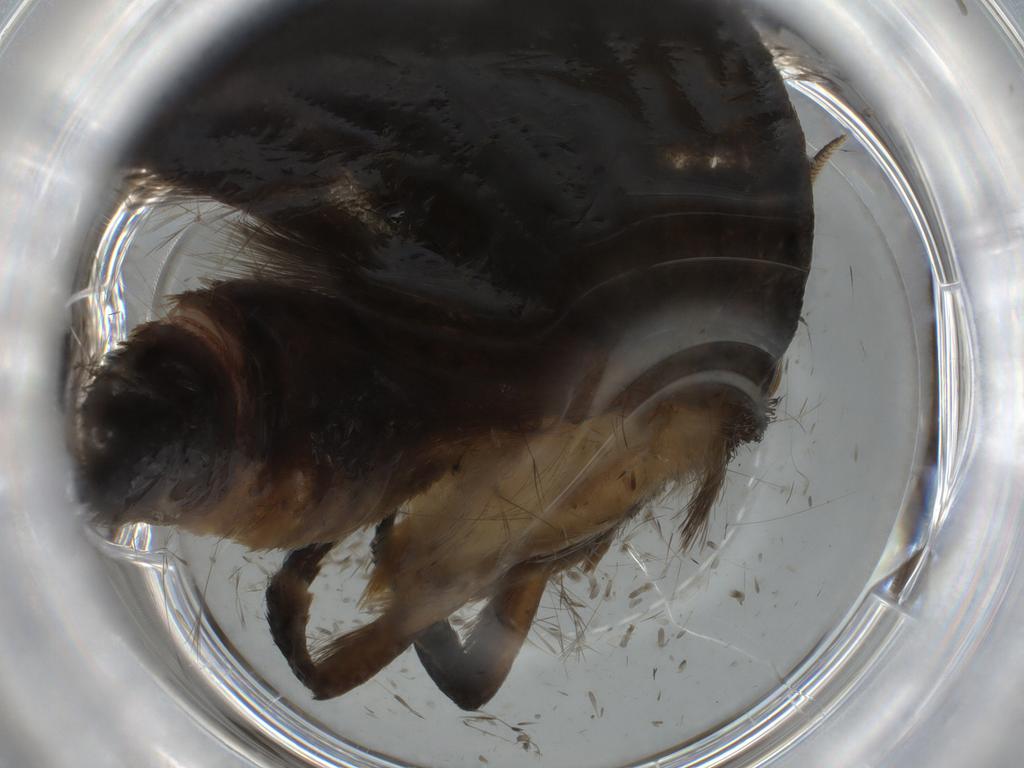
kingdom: Animalia
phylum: Arthropoda
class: Insecta
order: Lepidoptera
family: Tineidae
